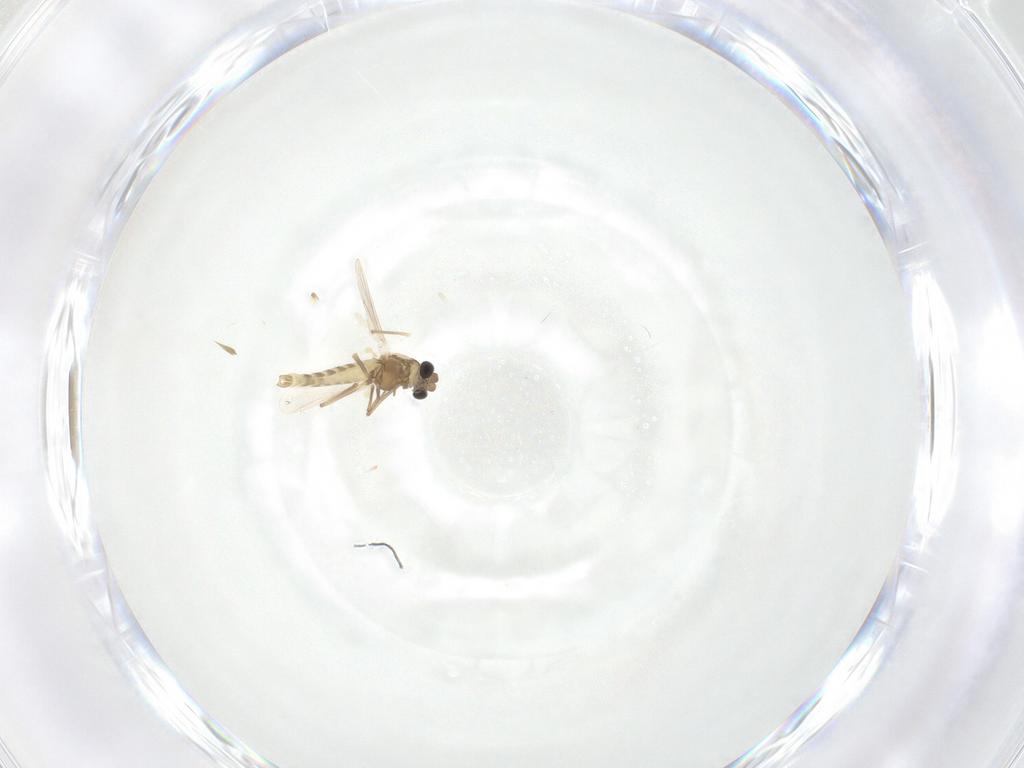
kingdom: Animalia
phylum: Arthropoda
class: Insecta
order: Diptera
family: Chironomidae
